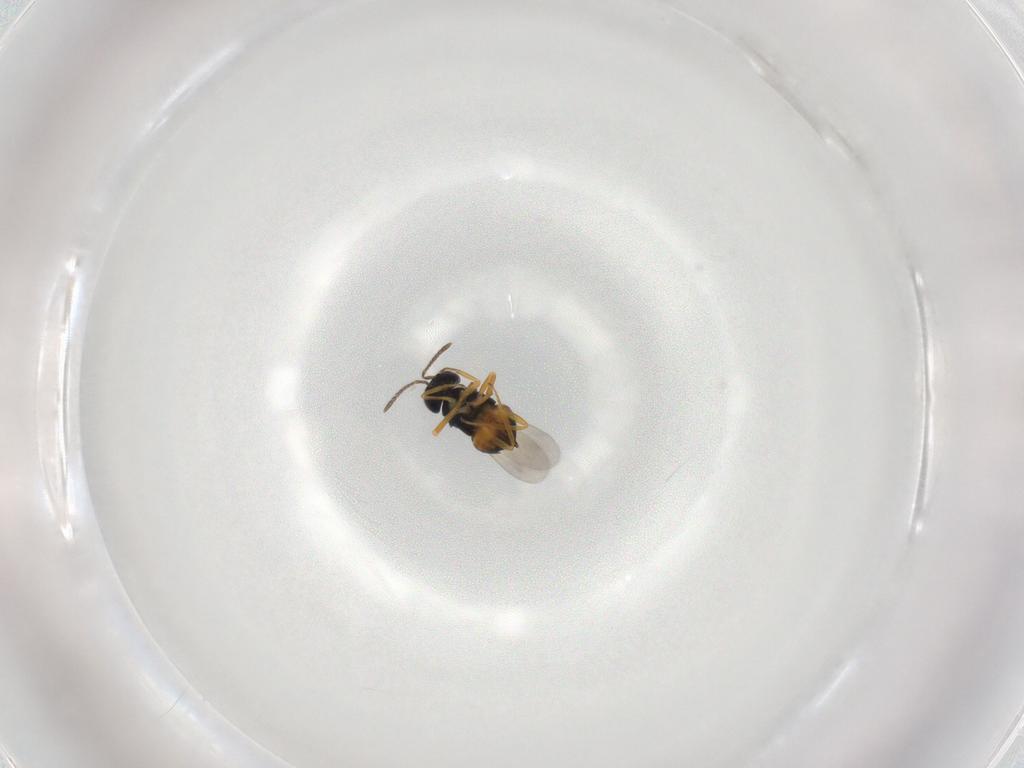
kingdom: Animalia
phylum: Arthropoda
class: Insecta
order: Hymenoptera
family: Encyrtidae
